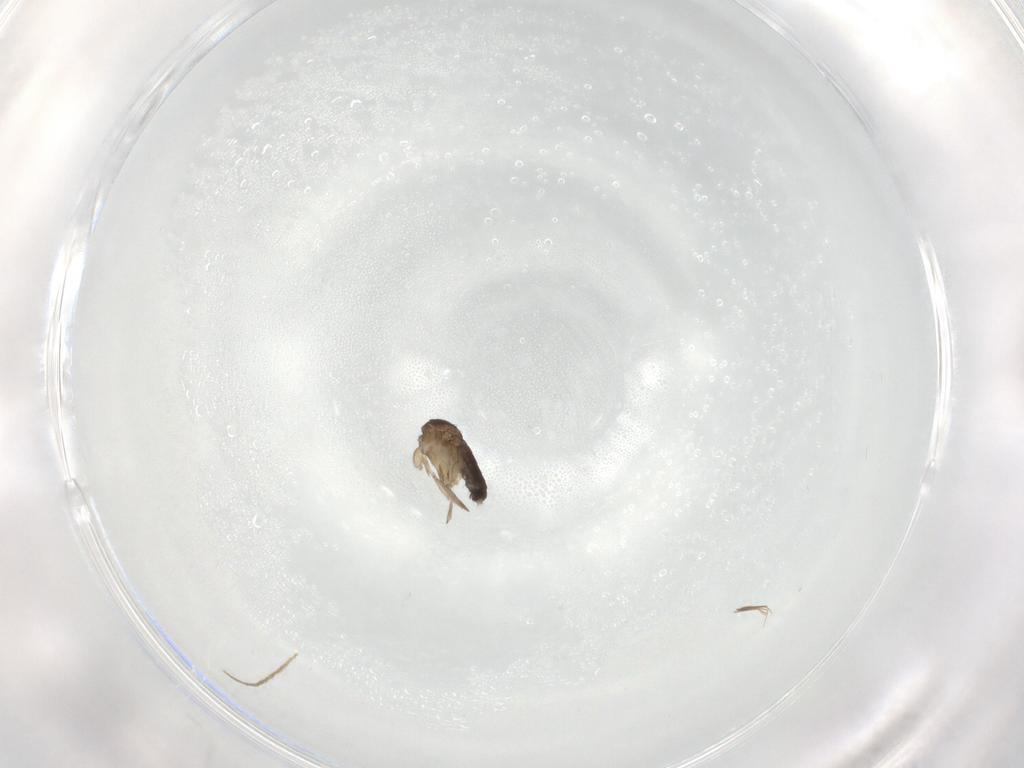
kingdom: Animalia
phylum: Arthropoda
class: Insecta
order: Diptera
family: Phoridae
